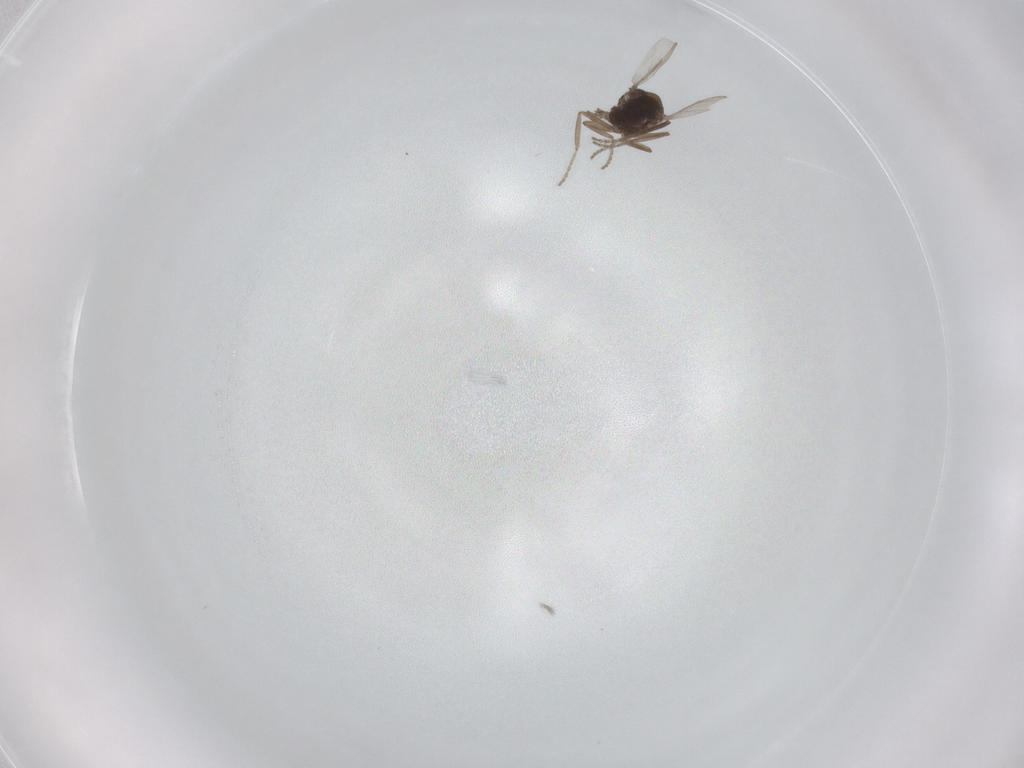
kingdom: Animalia
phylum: Arthropoda
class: Insecta
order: Diptera
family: Ceratopogonidae
